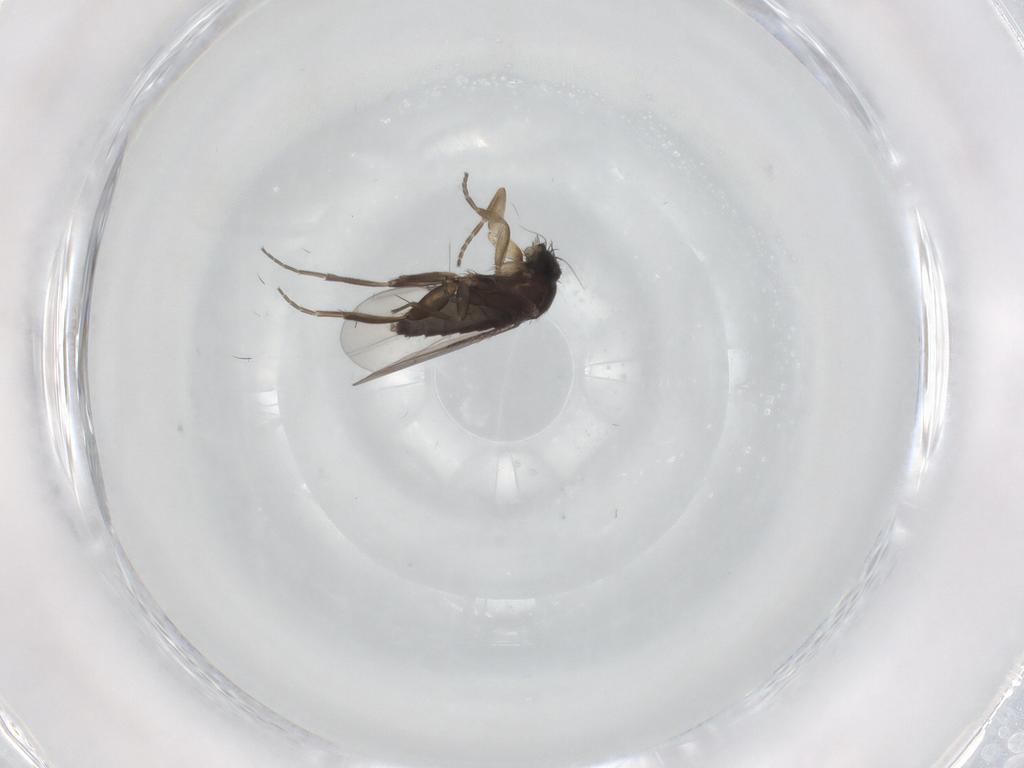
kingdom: Animalia
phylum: Arthropoda
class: Insecta
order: Diptera
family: Phoridae
